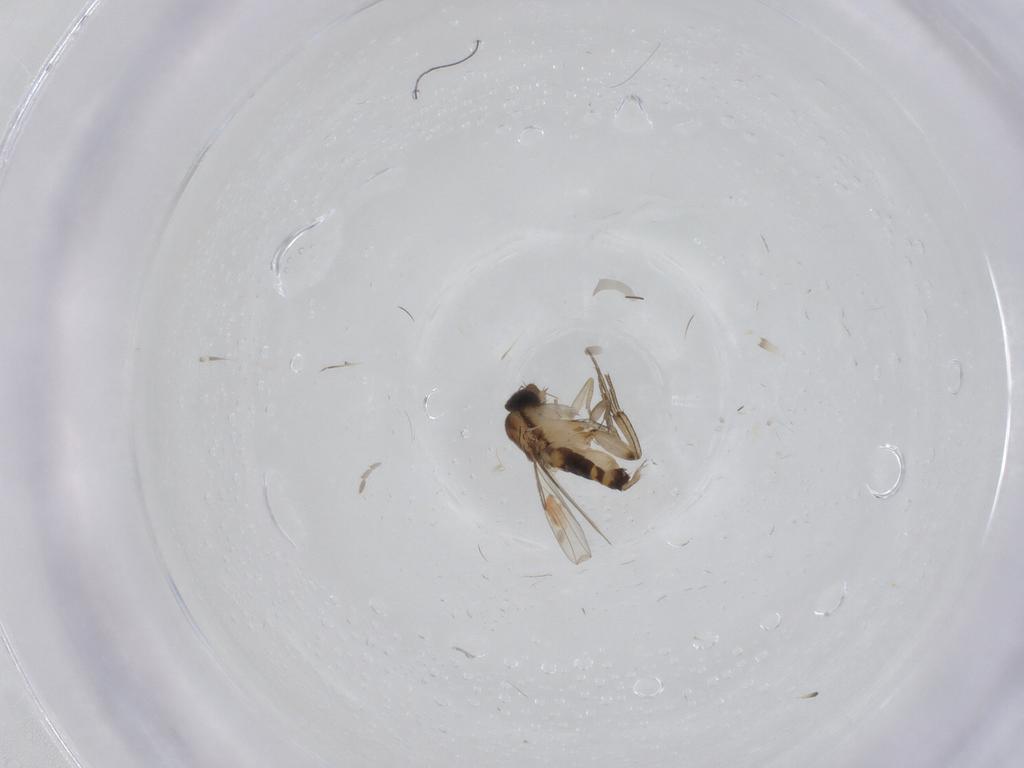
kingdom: Animalia
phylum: Arthropoda
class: Insecta
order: Diptera
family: Phoridae
